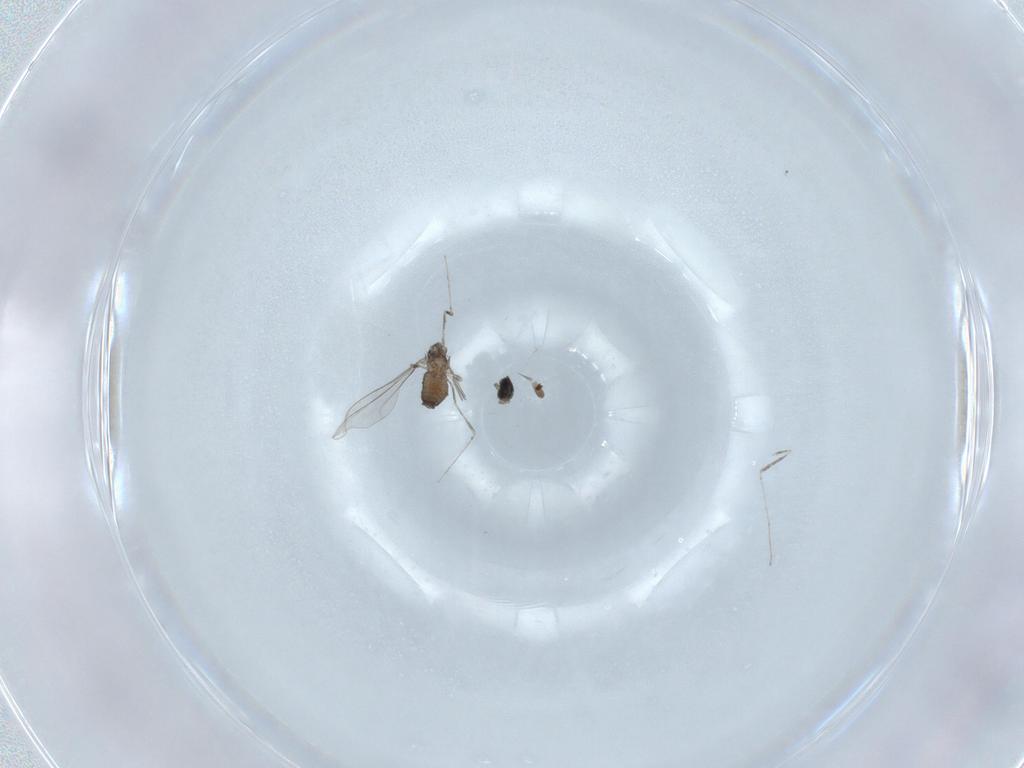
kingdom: Animalia
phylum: Arthropoda
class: Insecta
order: Diptera
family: Cecidomyiidae
